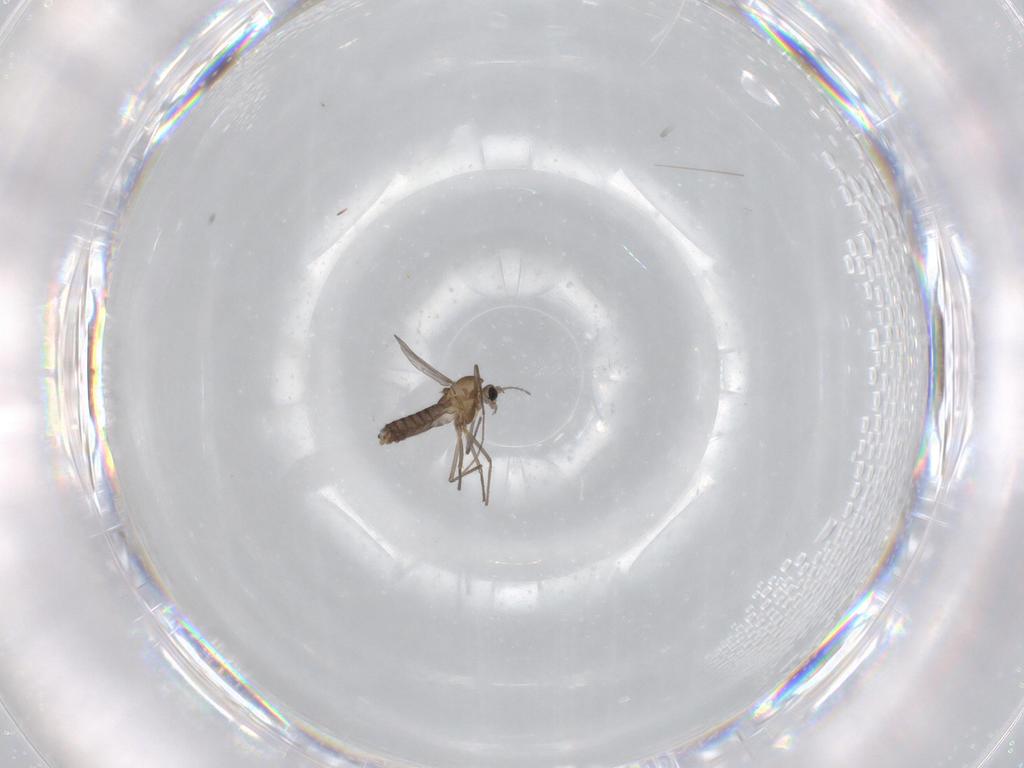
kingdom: Animalia
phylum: Arthropoda
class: Insecta
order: Diptera
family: Chironomidae
